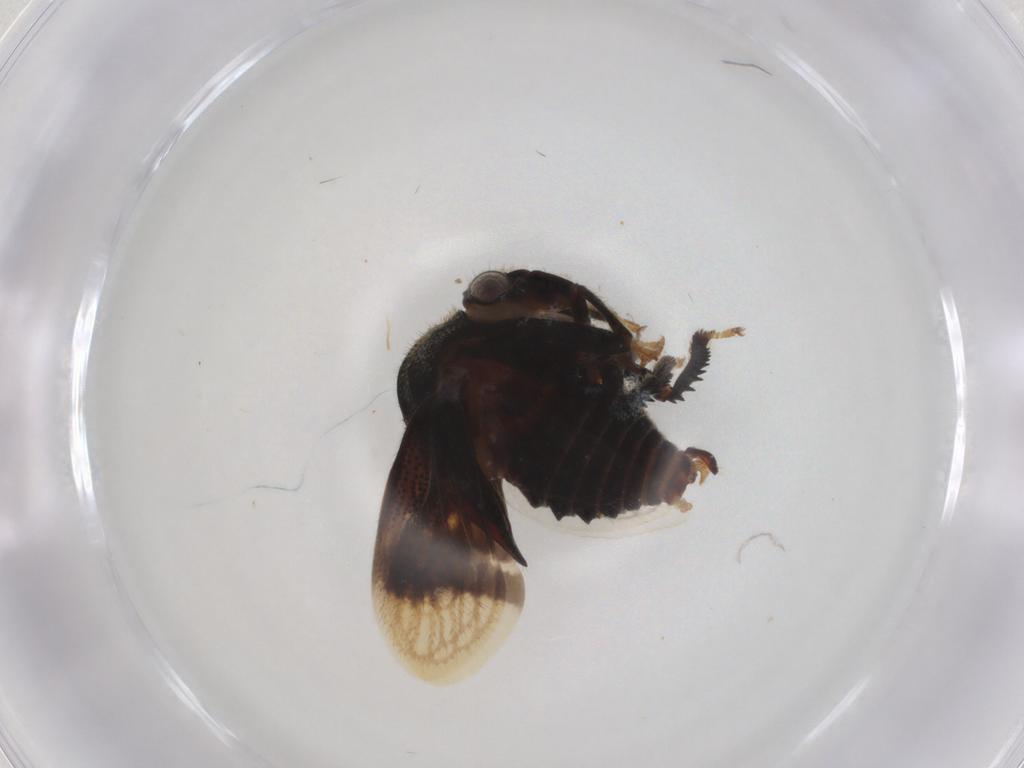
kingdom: Animalia
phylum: Arthropoda
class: Insecta
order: Hemiptera
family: Membracidae
